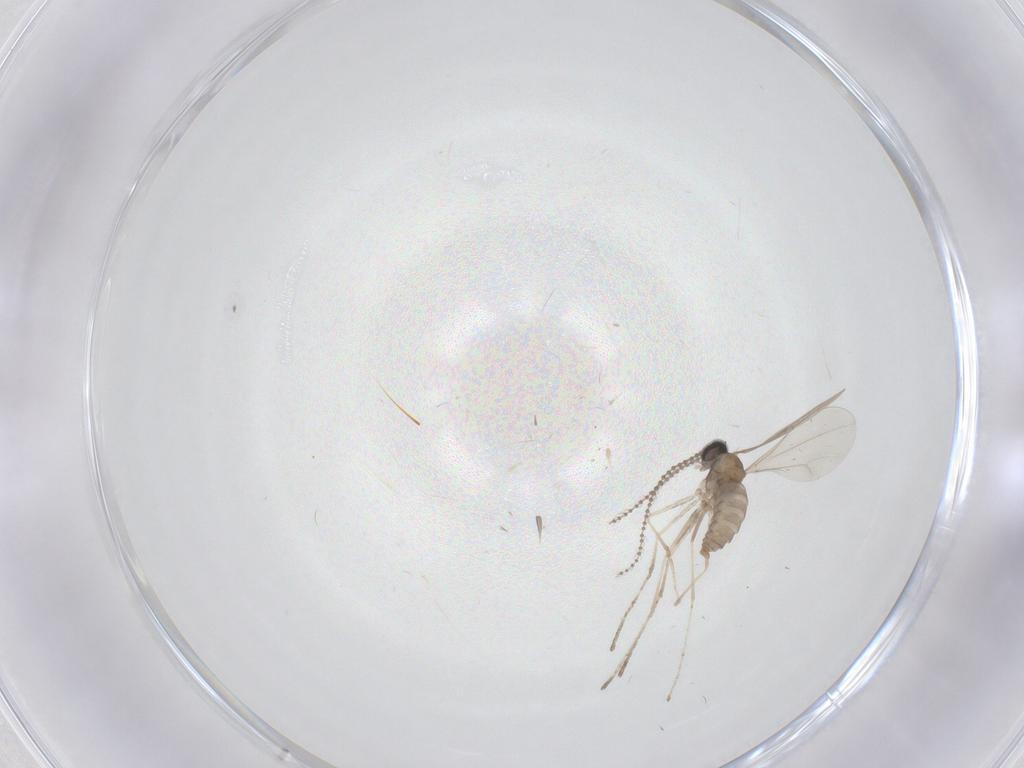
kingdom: Animalia
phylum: Arthropoda
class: Insecta
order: Diptera
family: Cecidomyiidae
